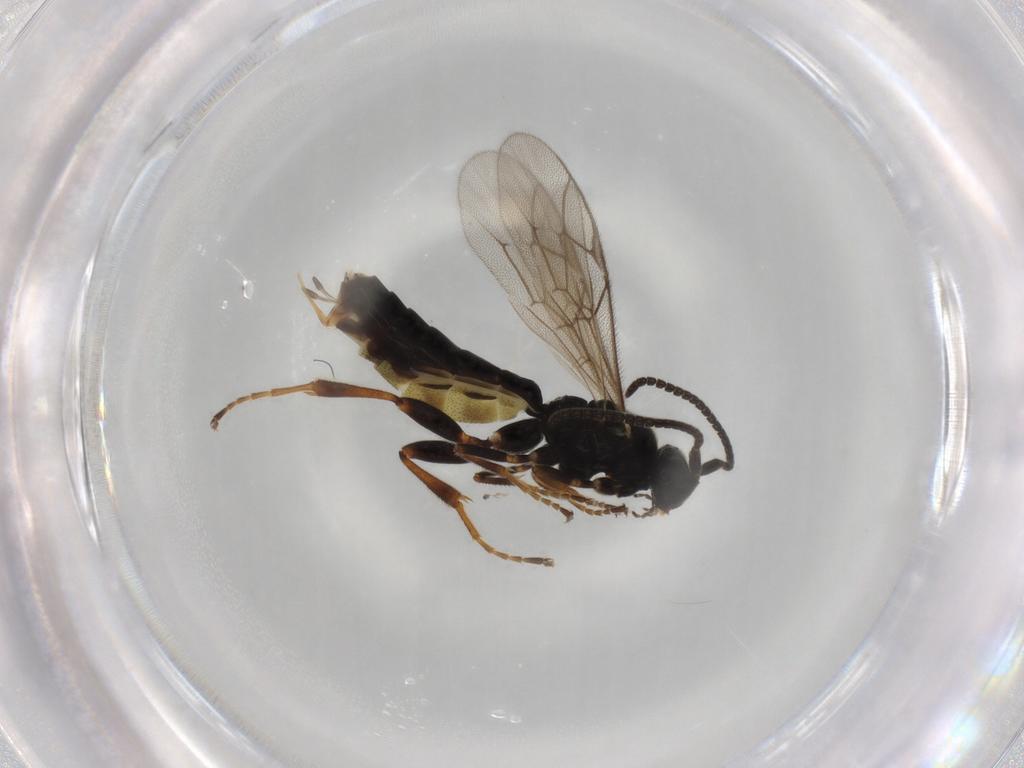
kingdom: Animalia
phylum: Arthropoda
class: Insecta
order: Hymenoptera
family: Ichneumonidae
